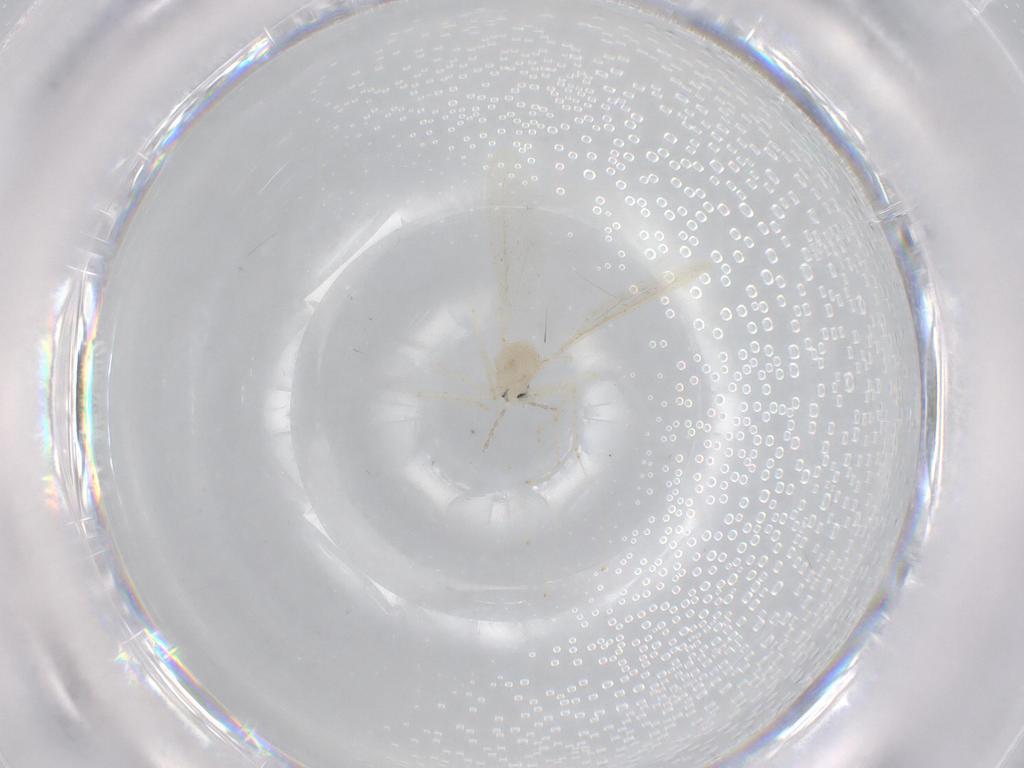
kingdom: Animalia
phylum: Arthropoda
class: Insecta
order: Diptera
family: Cecidomyiidae
